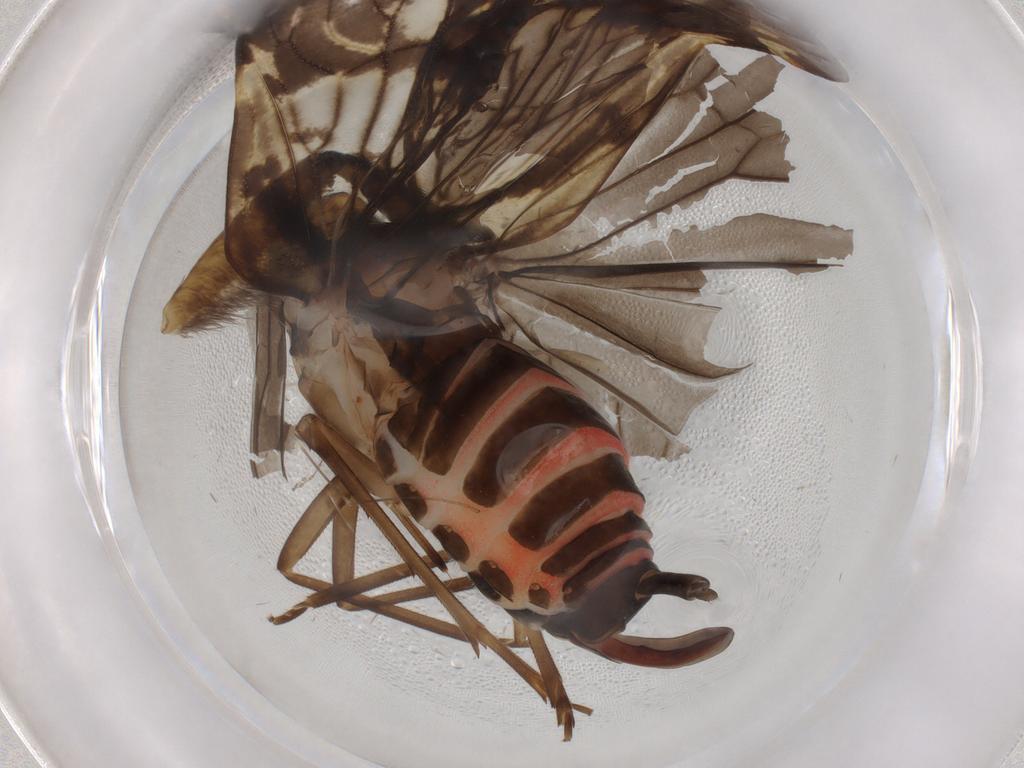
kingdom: Animalia
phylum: Arthropoda
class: Insecta
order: Hemiptera
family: Cixiidae
